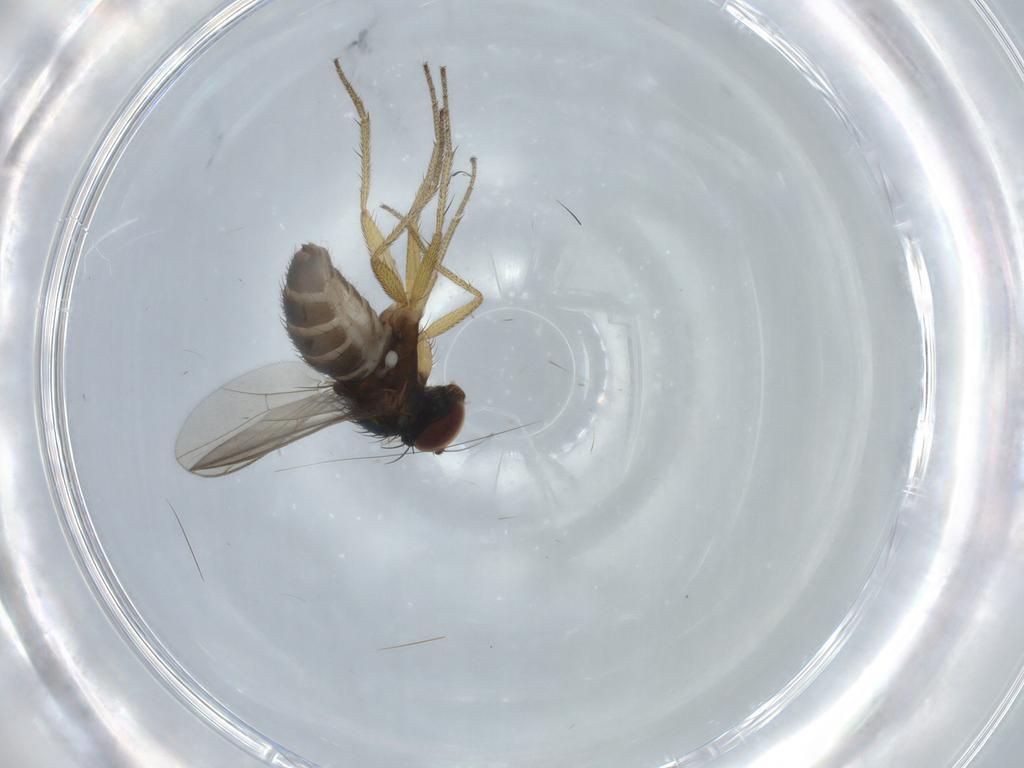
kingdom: Animalia
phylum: Arthropoda
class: Insecta
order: Diptera
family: Dolichopodidae
